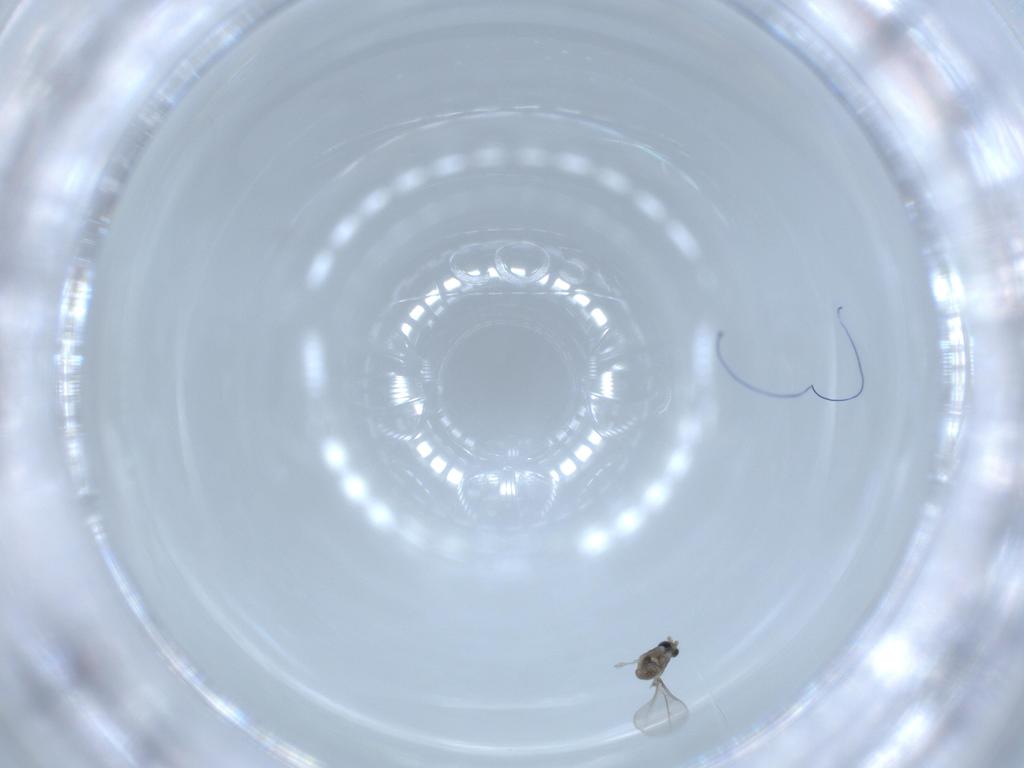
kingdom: Animalia
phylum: Arthropoda
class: Insecta
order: Diptera
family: Cecidomyiidae
